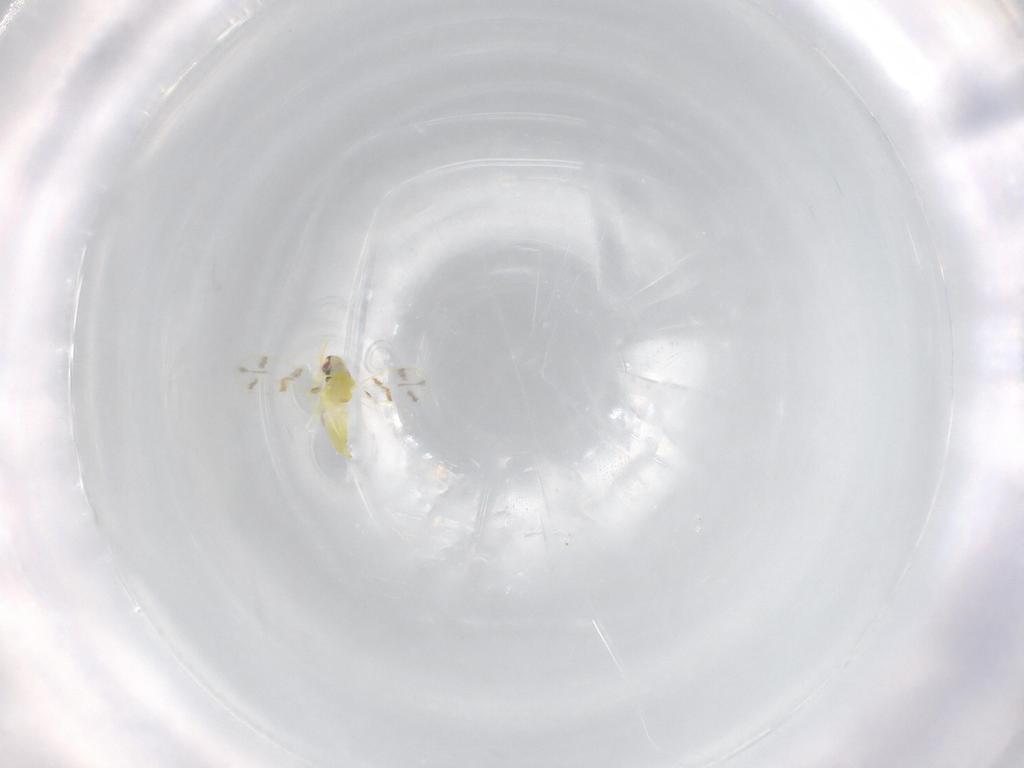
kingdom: Animalia
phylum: Arthropoda
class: Insecta
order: Hemiptera
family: Aleyrodidae
